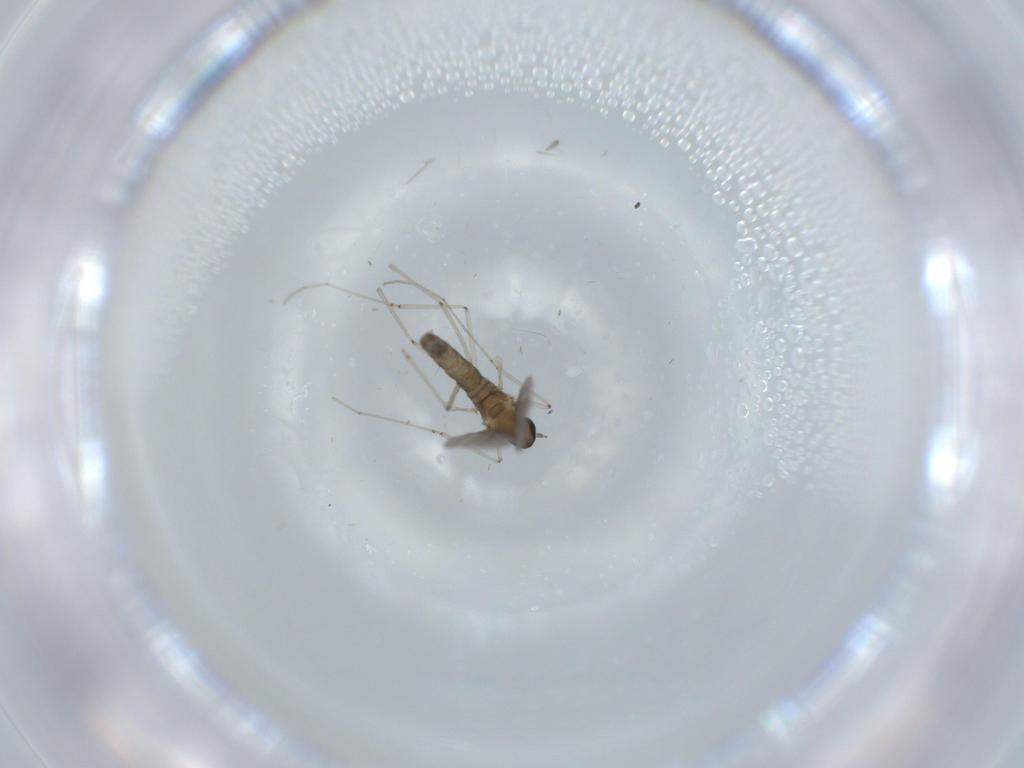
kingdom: Animalia
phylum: Arthropoda
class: Insecta
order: Diptera
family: Cecidomyiidae
